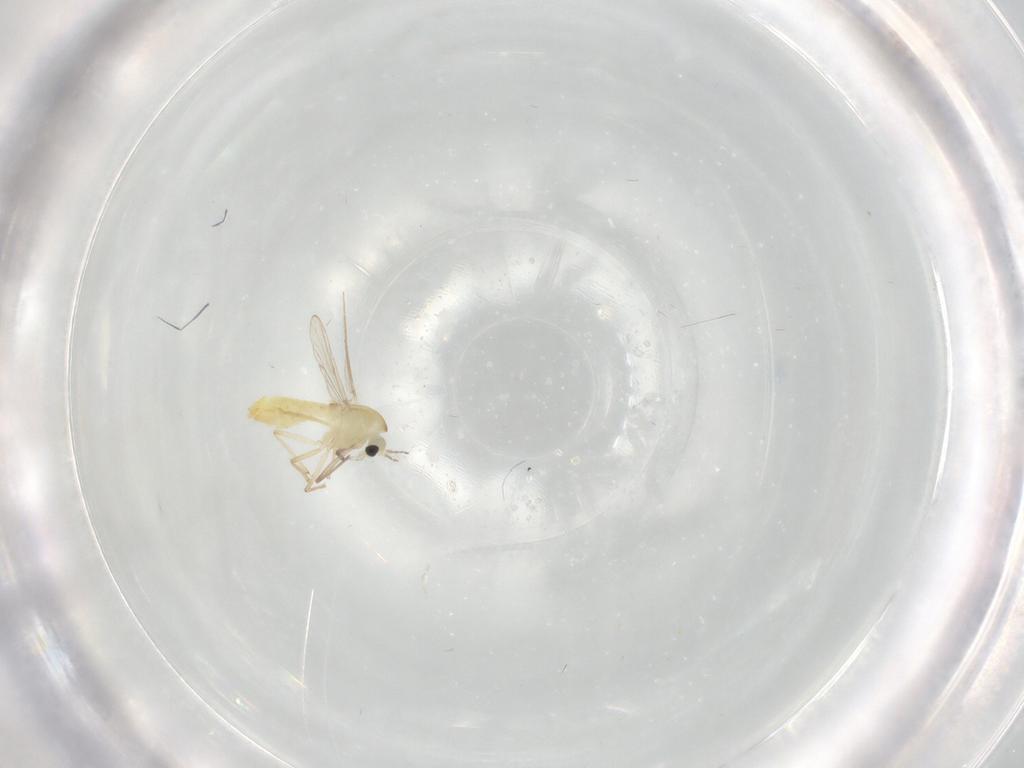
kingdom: Animalia
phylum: Arthropoda
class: Insecta
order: Diptera
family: Chironomidae
